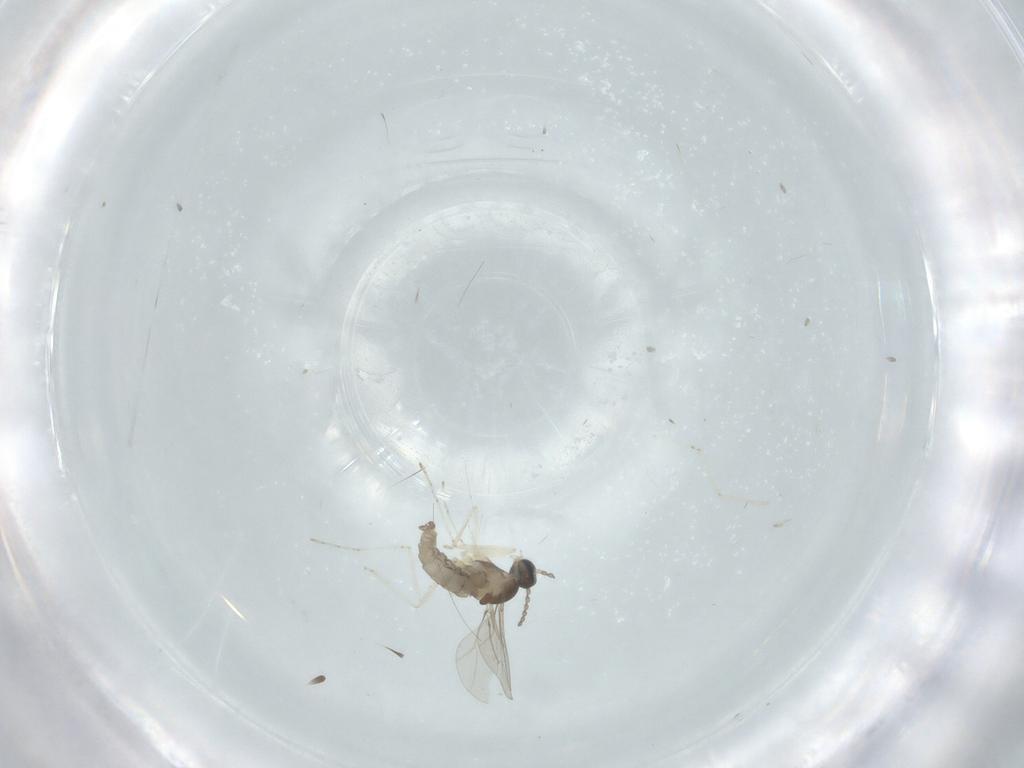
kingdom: Animalia
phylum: Arthropoda
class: Insecta
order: Diptera
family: Cecidomyiidae
